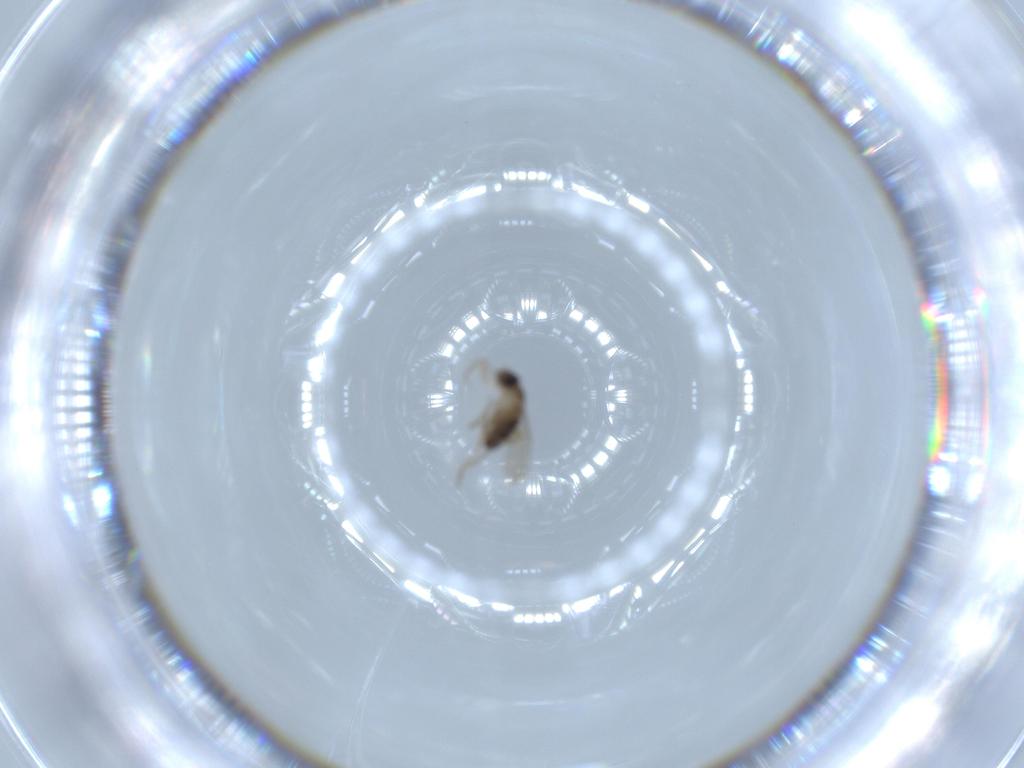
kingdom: Animalia
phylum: Arthropoda
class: Insecta
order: Diptera
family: Phoridae
